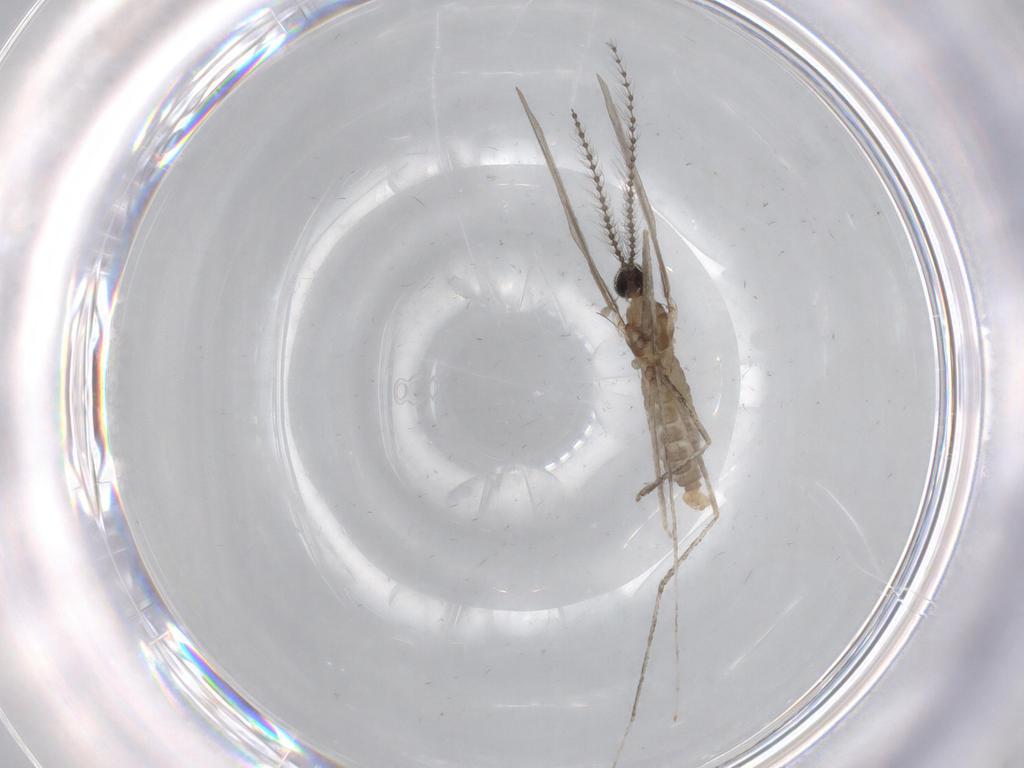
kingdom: Animalia
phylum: Arthropoda
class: Insecta
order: Diptera
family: Cecidomyiidae
